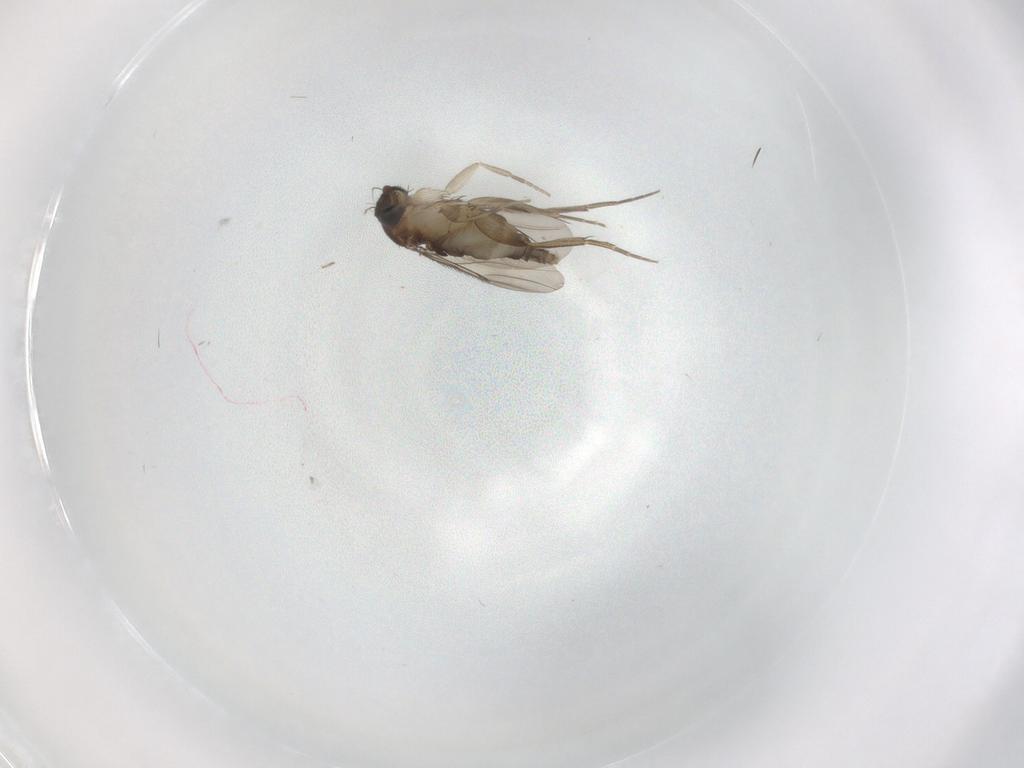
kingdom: Animalia
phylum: Arthropoda
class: Insecta
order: Diptera
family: Phoridae
